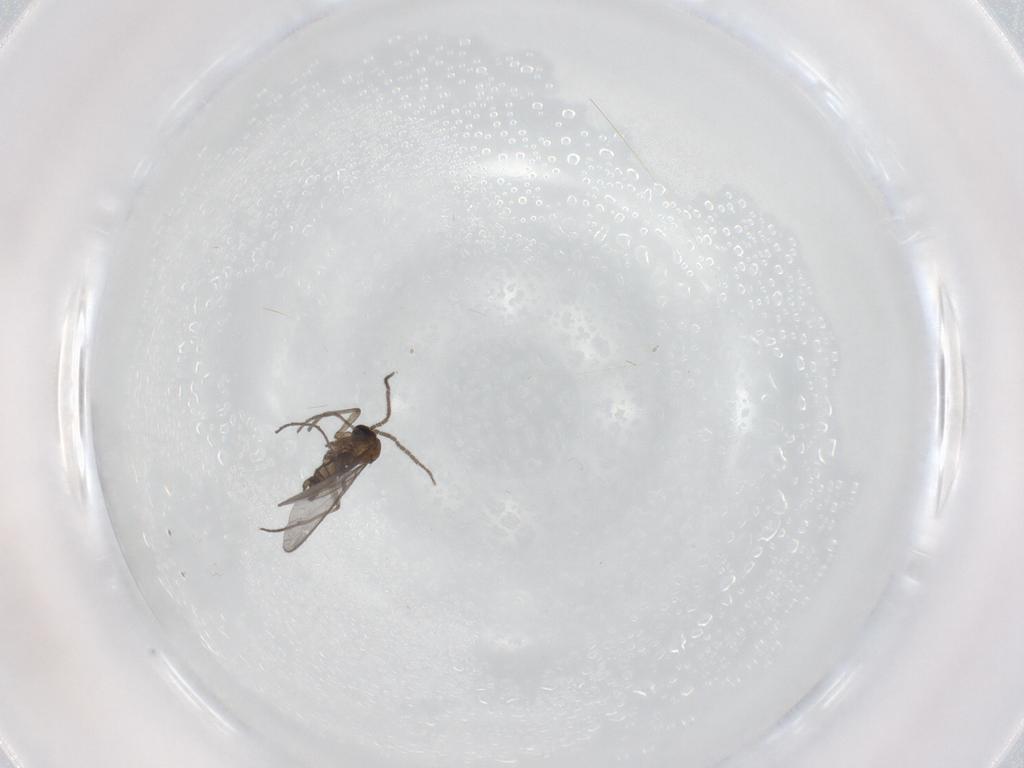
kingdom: Animalia
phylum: Arthropoda
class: Insecta
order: Diptera
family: Sciaridae
